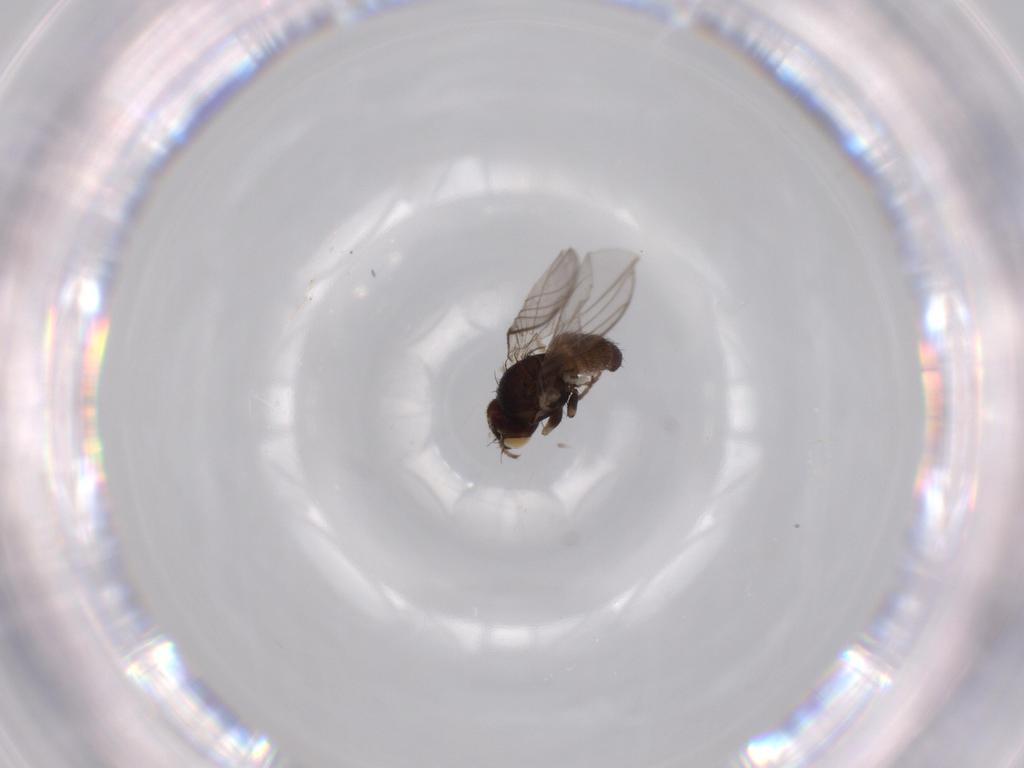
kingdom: Animalia
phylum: Arthropoda
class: Insecta
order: Diptera
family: Agromyzidae
